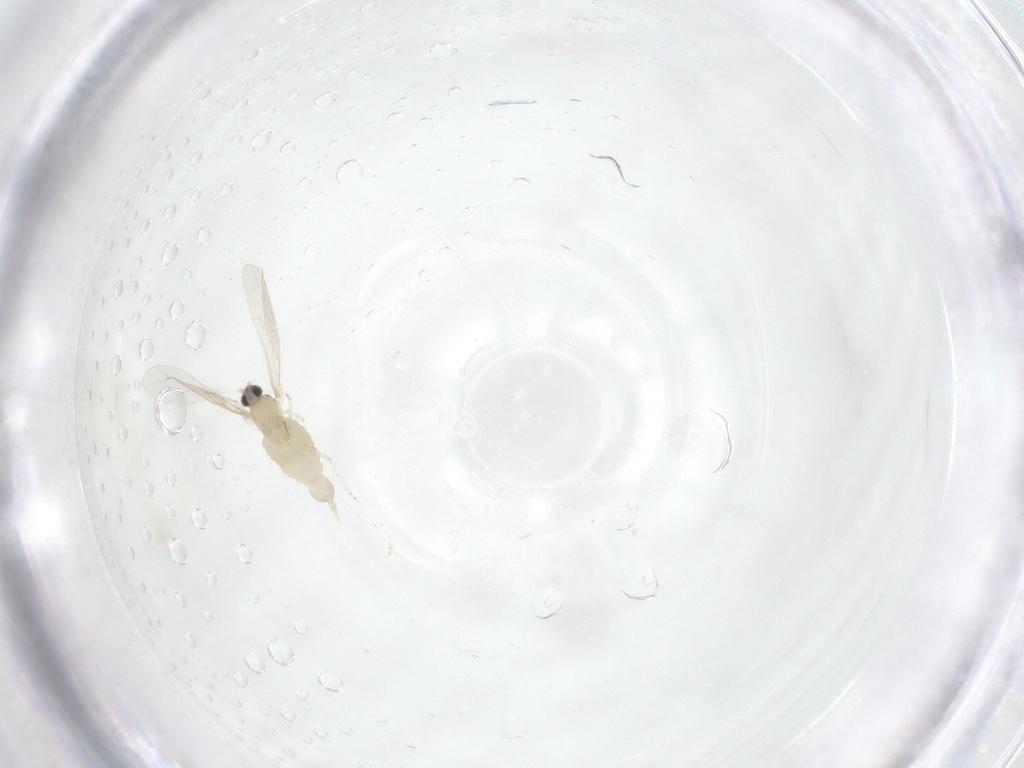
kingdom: Animalia
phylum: Arthropoda
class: Insecta
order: Diptera
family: Cecidomyiidae
